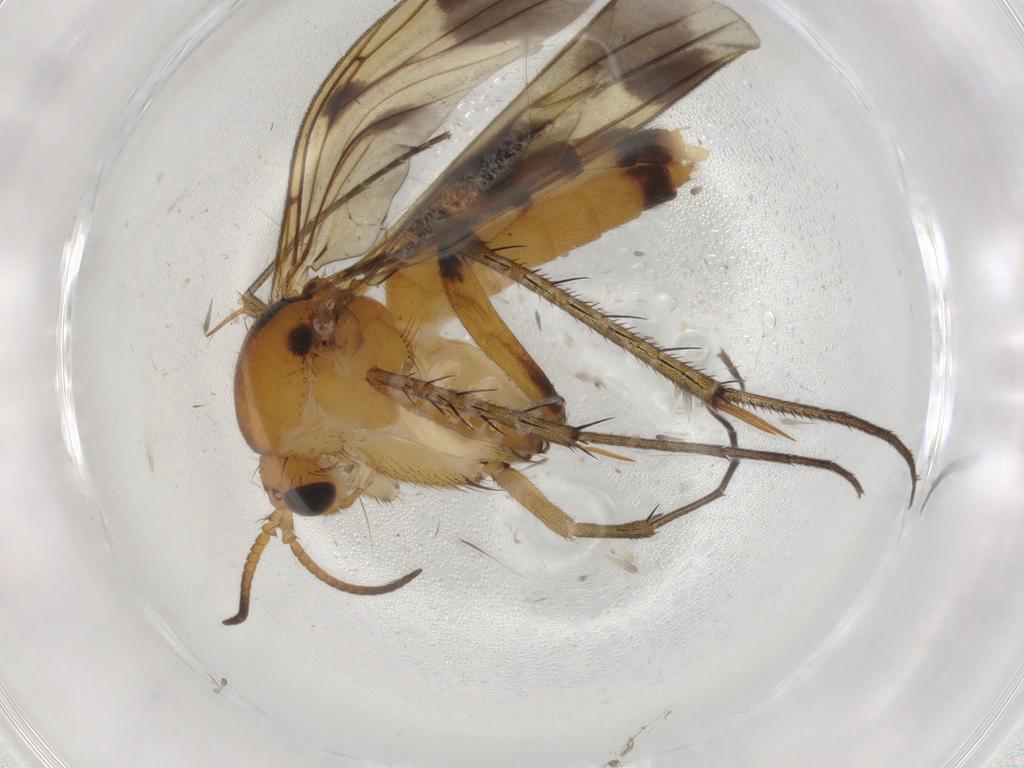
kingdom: Animalia
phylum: Arthropoda
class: Insecta
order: Diptera
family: Mycetophilidae
